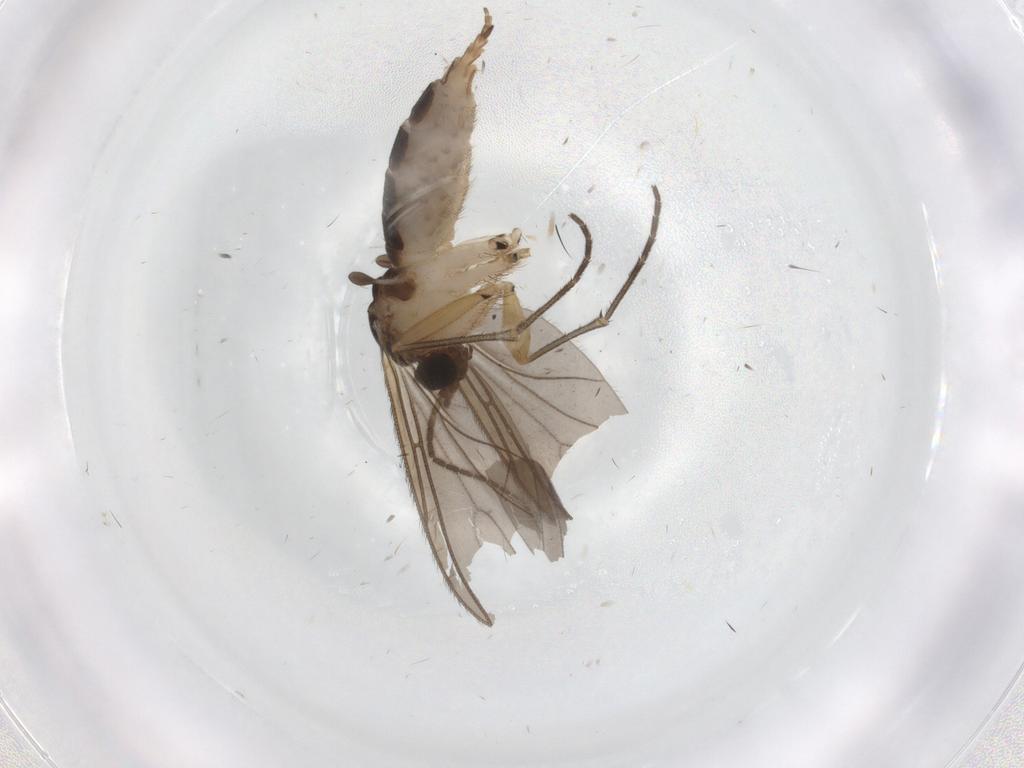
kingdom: Animalia
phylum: Arthropoda
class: Insecta
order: Diptera
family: Sciaridae
